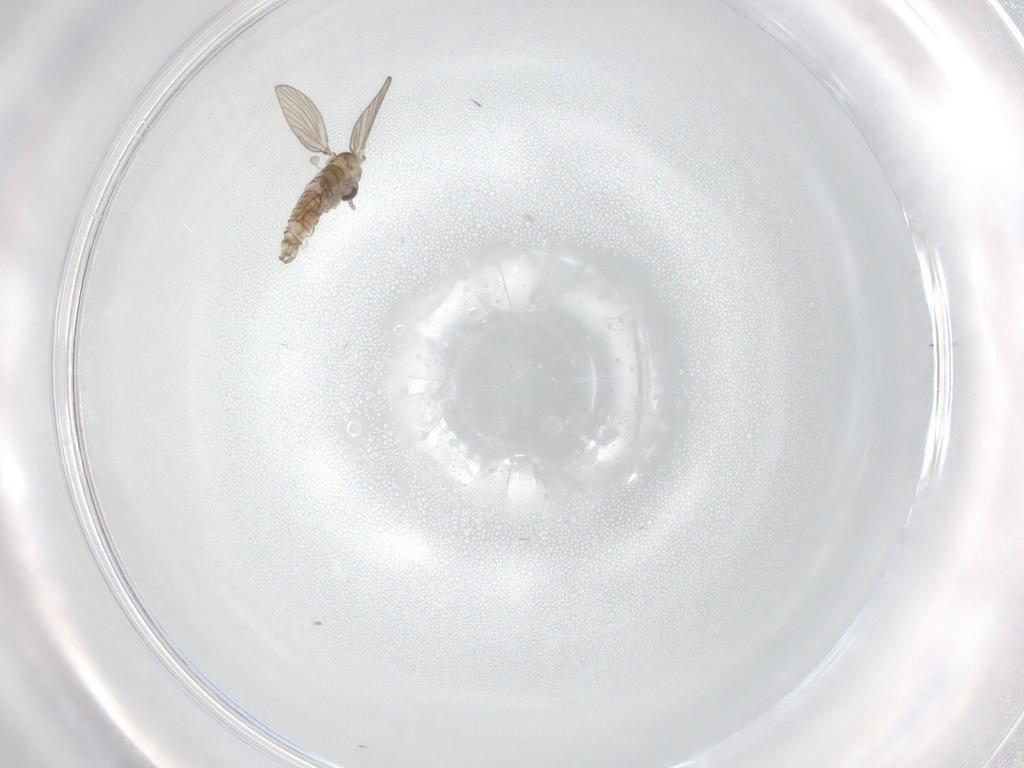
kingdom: Animalia
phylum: Arthropoda
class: Insecta
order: Diptera
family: Psychodidae
